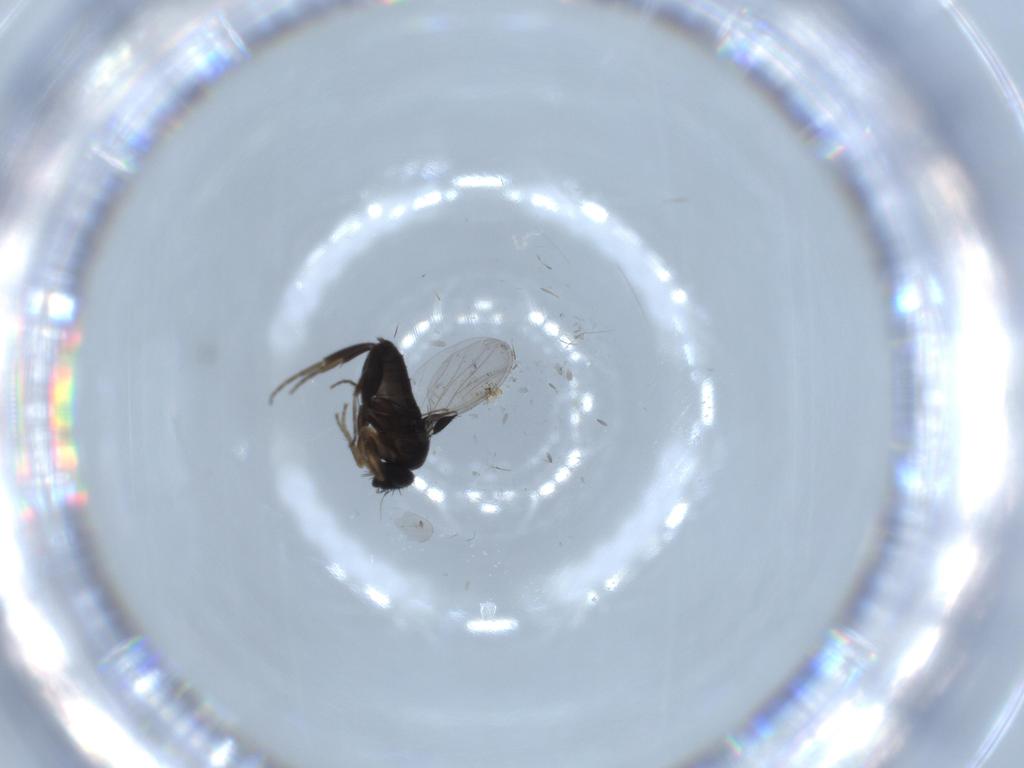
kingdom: Animalia
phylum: Arthropoda
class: Insecta
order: Diptera
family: Phoridae
